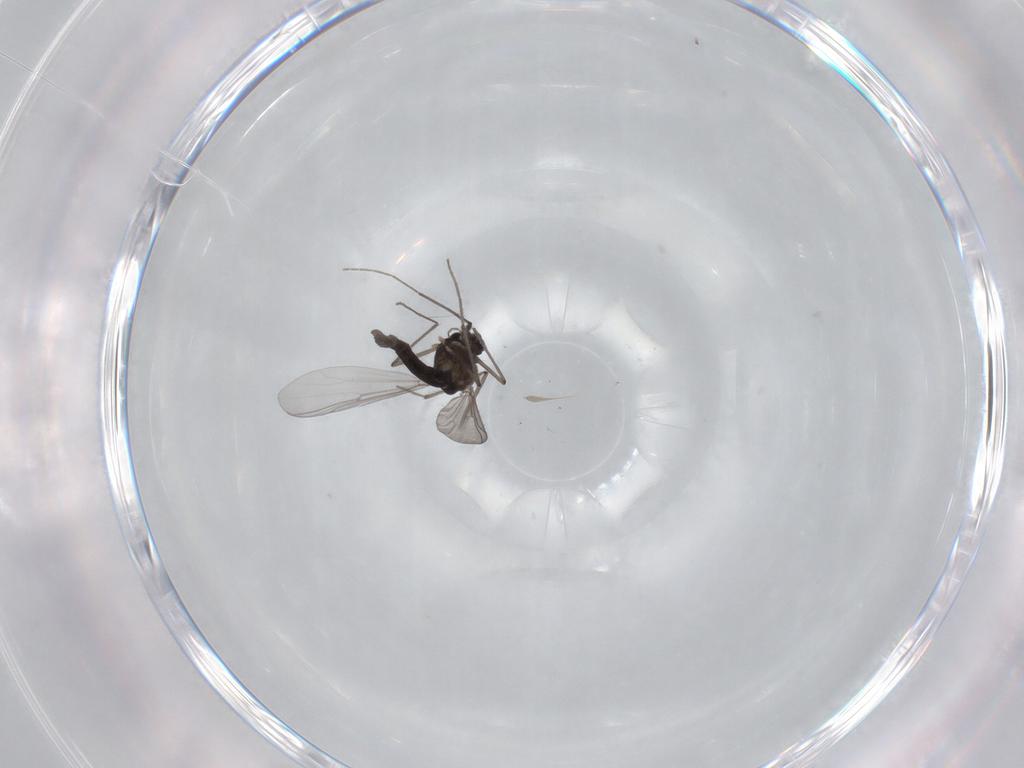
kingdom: Animalia
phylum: Arthropoda
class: Insecta
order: Diptera
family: Chironomidae
